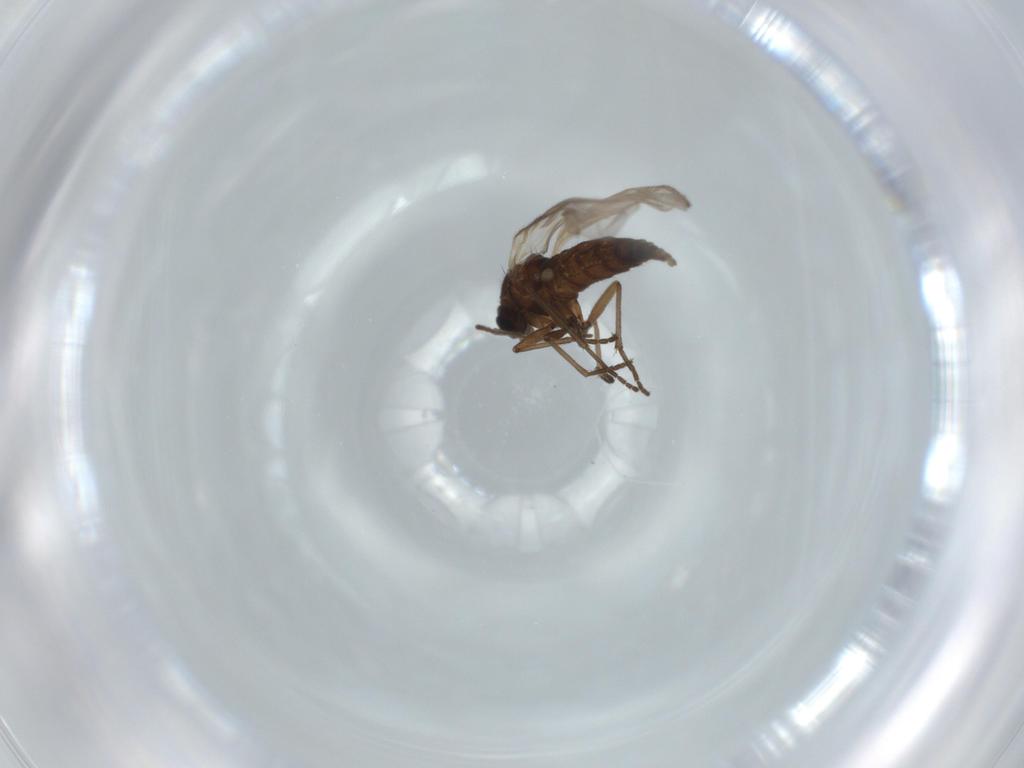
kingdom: Animalia
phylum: Arthropoda
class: Insecta
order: Diptera
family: Sciaridae
